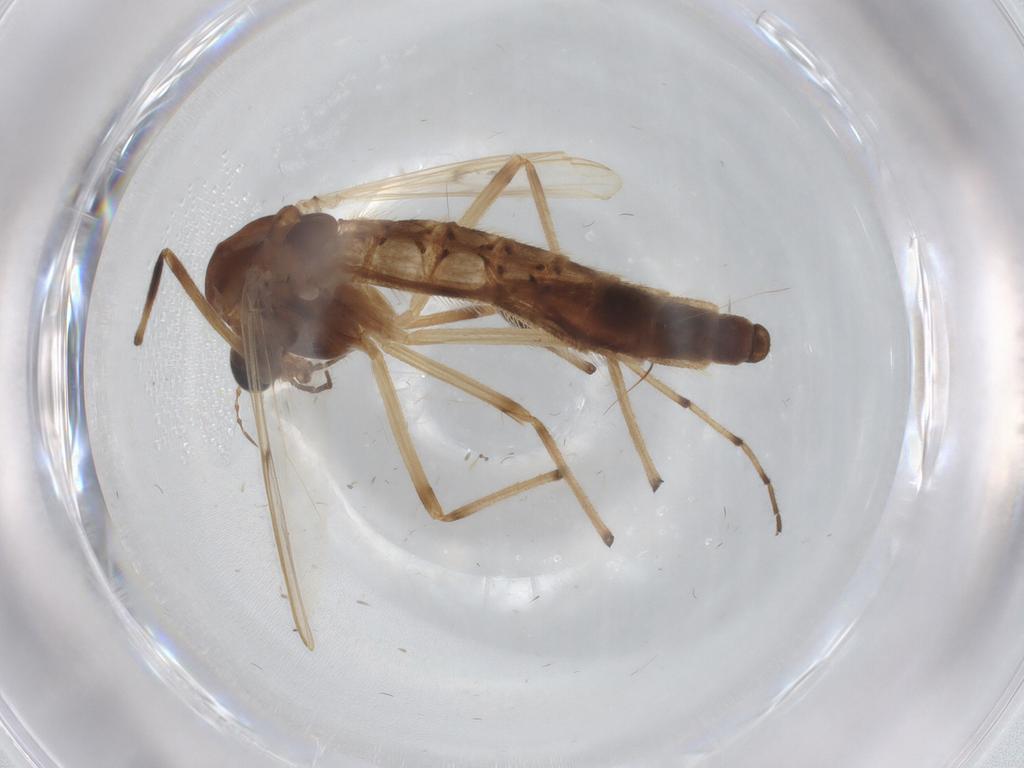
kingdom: Animalia
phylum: Arthropoda
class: Insecta
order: Diptera
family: Chironomidae
